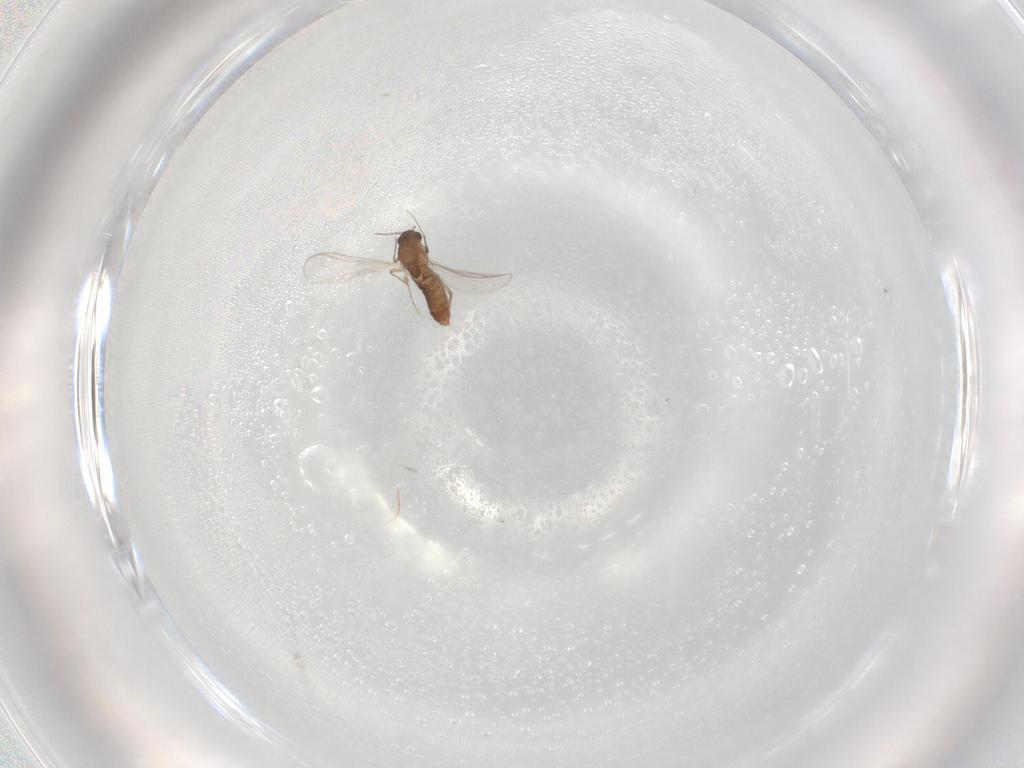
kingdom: Animalia
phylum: Arthropoda
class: Insecta
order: Diptera
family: Chironomidae
